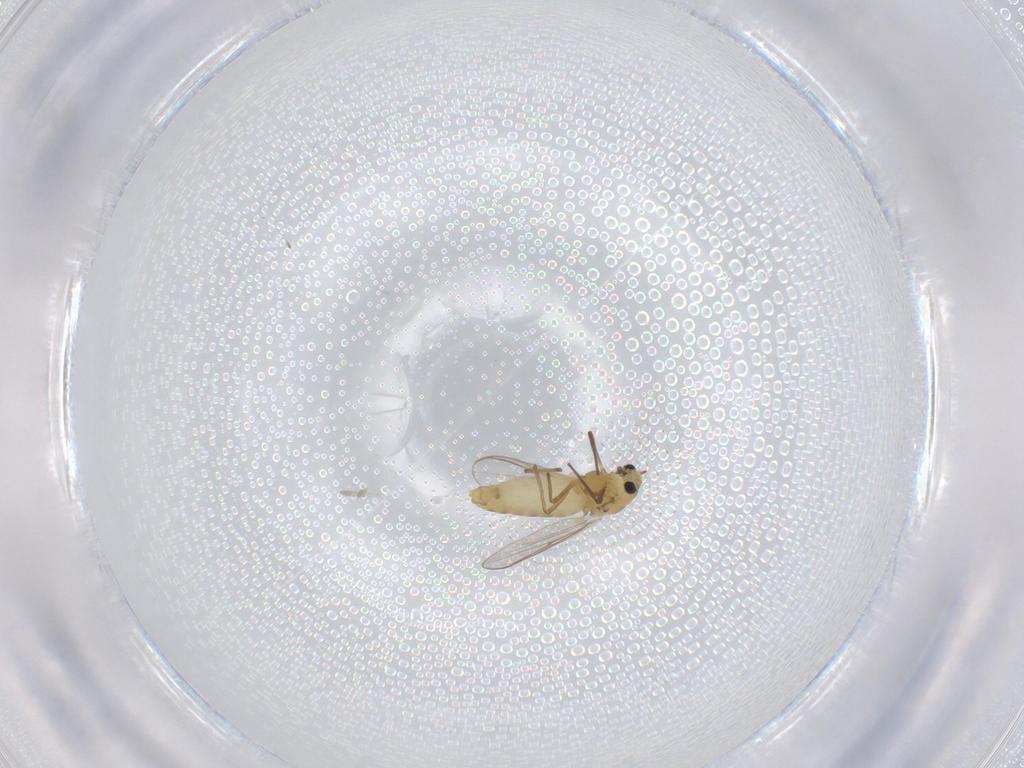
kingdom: Animalia
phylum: Arthropoda
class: Insecta
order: Diptera
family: Chironomidae
